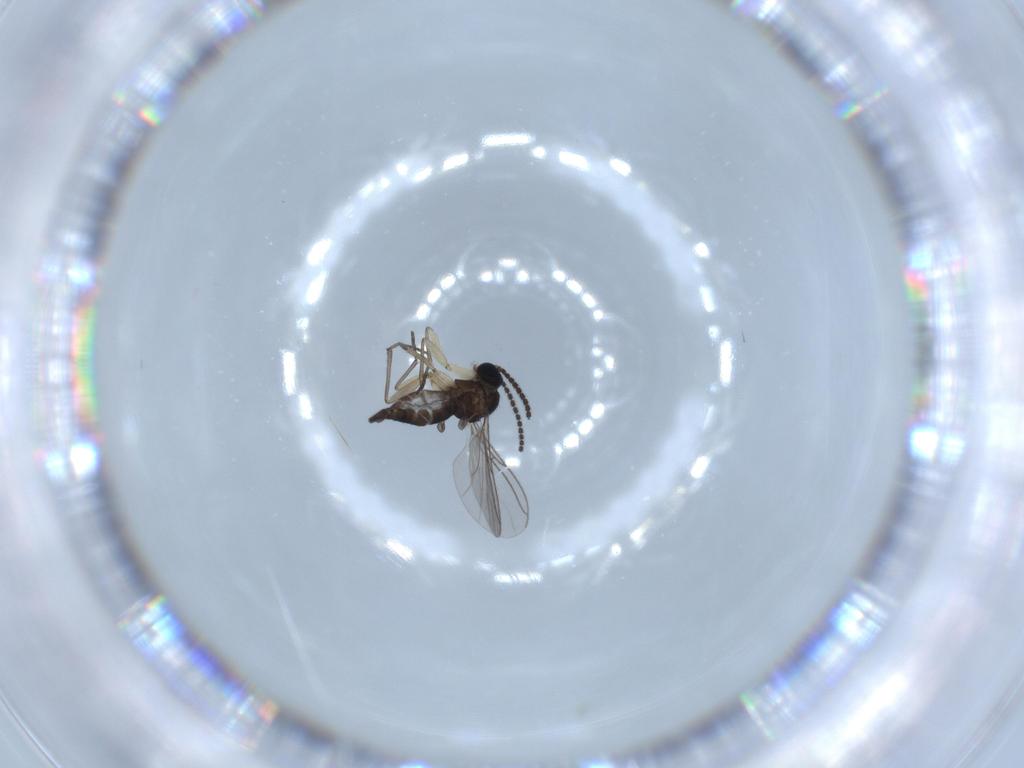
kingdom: Animalia
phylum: Arthropoda
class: Insecta
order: Diptera
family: Sciaridae
